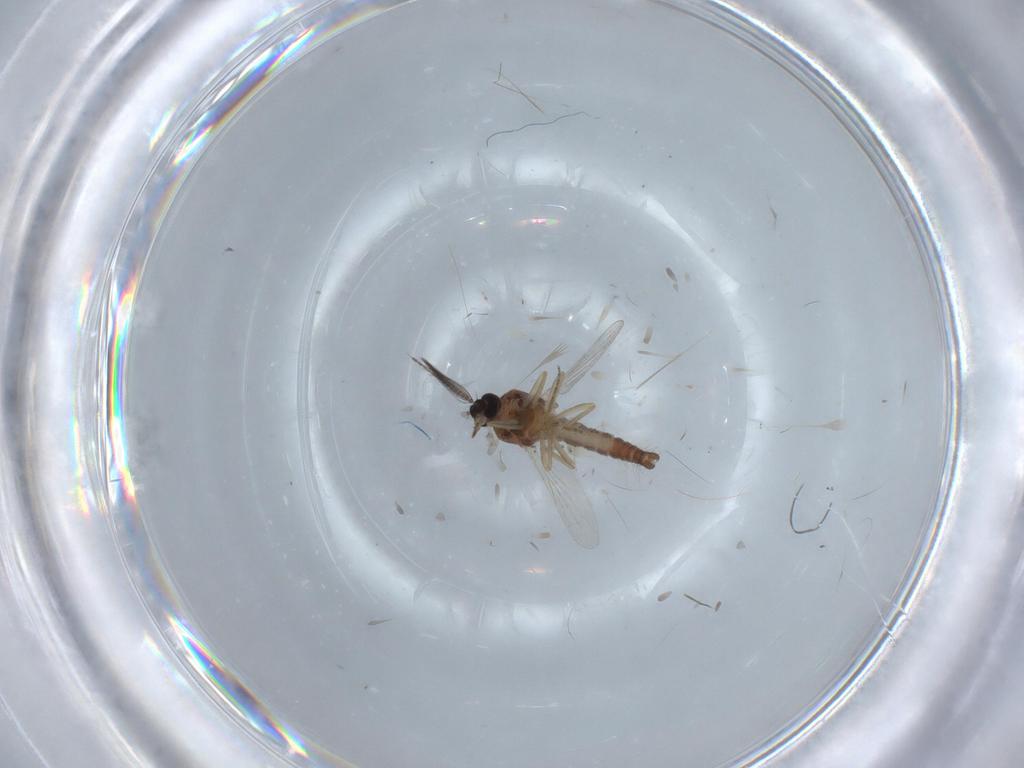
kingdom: Animalia
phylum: Arthropoda
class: Insecta
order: Diptera
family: Ceratopogonidae
